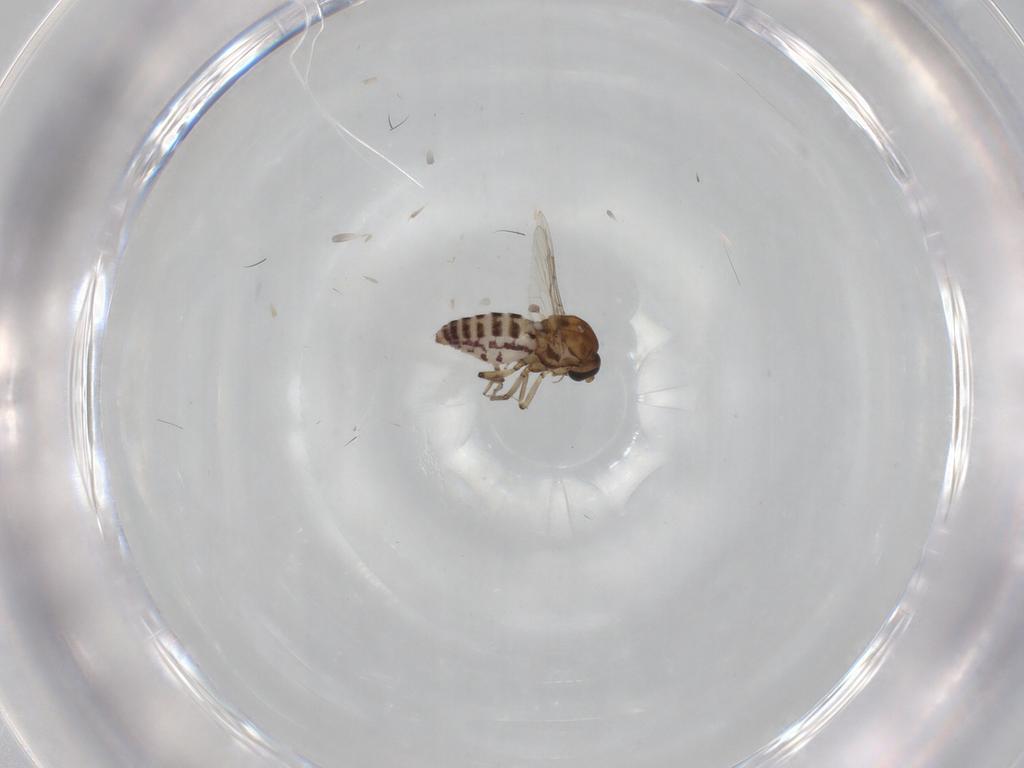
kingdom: Animalia
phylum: Arthropoda
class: Insecta
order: Diptera
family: Ceratopogonidae
